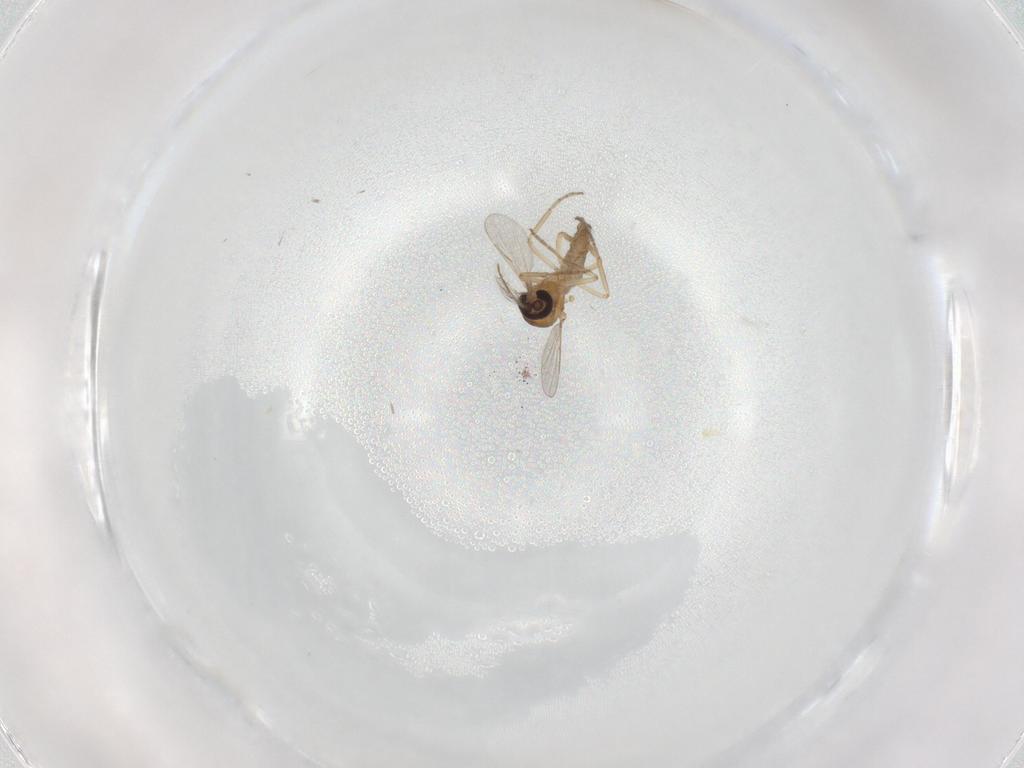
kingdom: Animalia
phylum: Arthropoda
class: Insecta
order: Diptera
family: Ceratopogonidae
